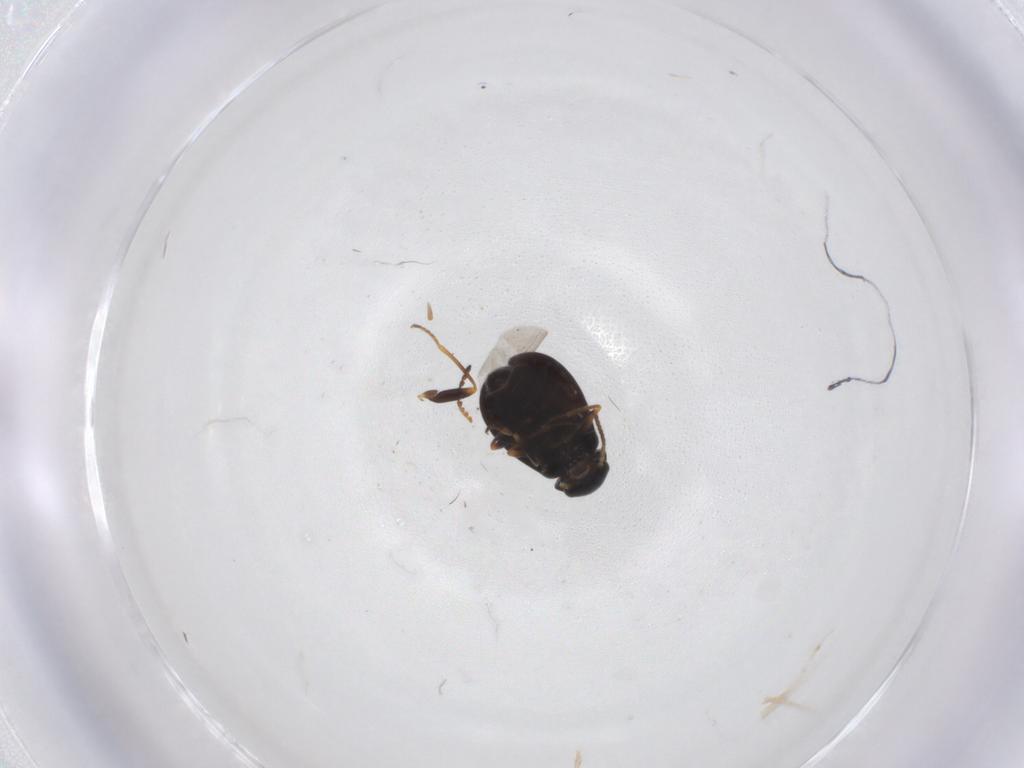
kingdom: Animalia
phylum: Arthropoda
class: Insecta
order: Coleoptera
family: Melyridae
